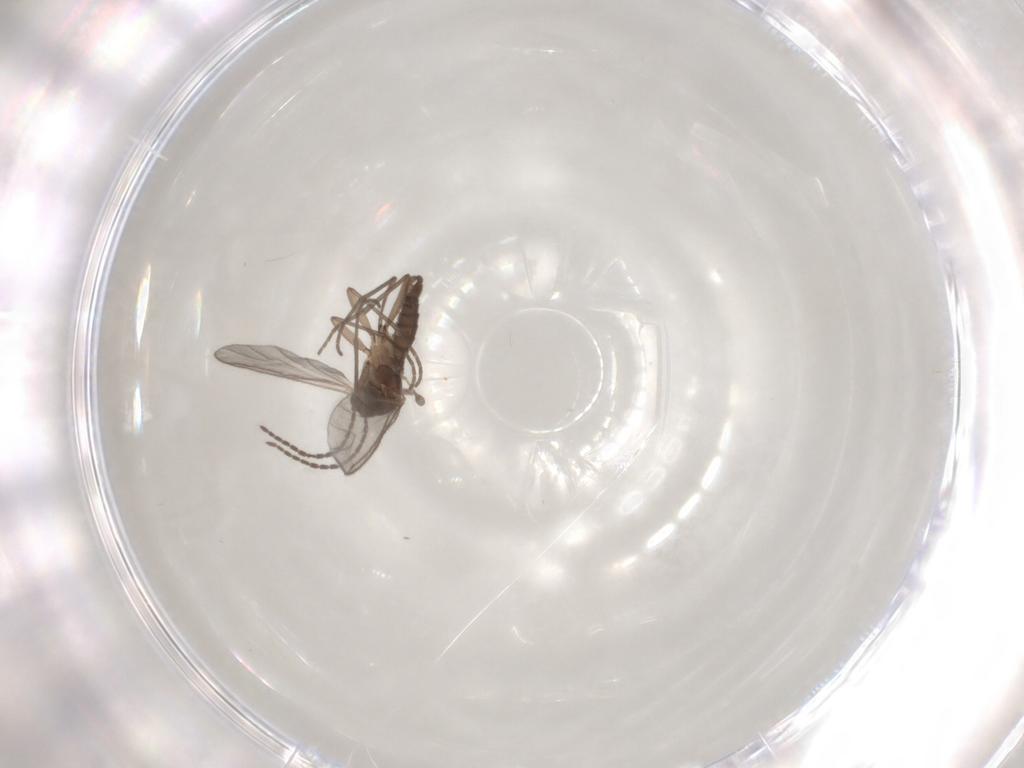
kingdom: Animalia
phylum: Arthropoda
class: Insecta
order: Diptera
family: Sciaridae
